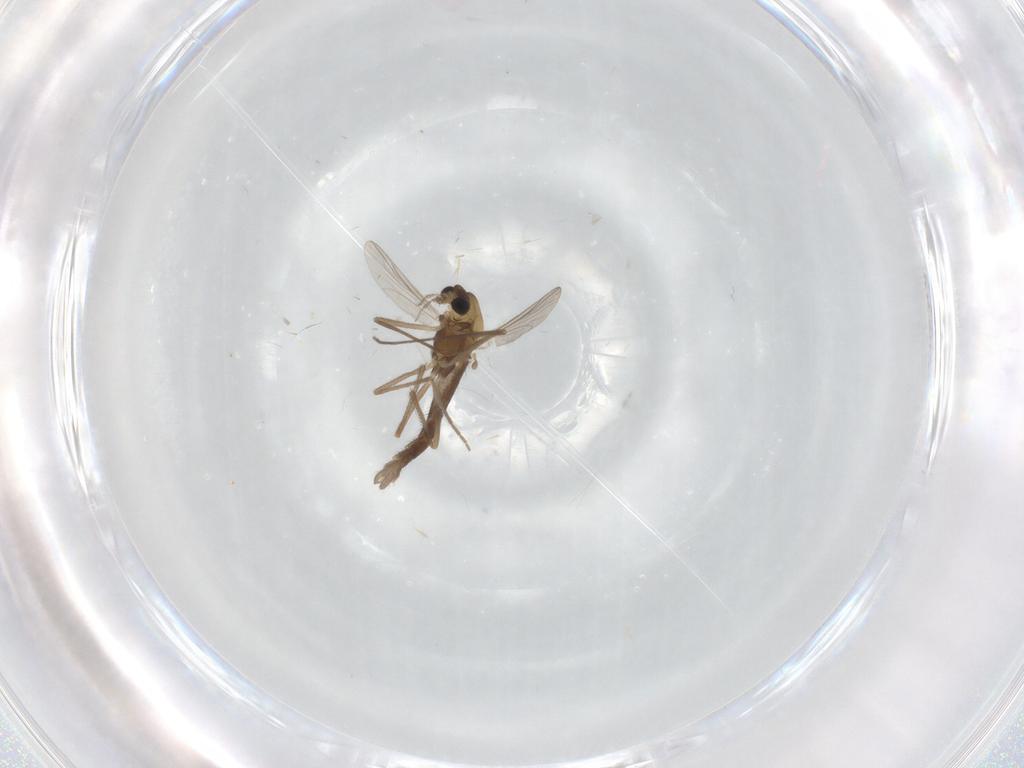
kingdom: Animalia
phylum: Arthropoda
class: Insecta
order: Diptera
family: Chironomidae
